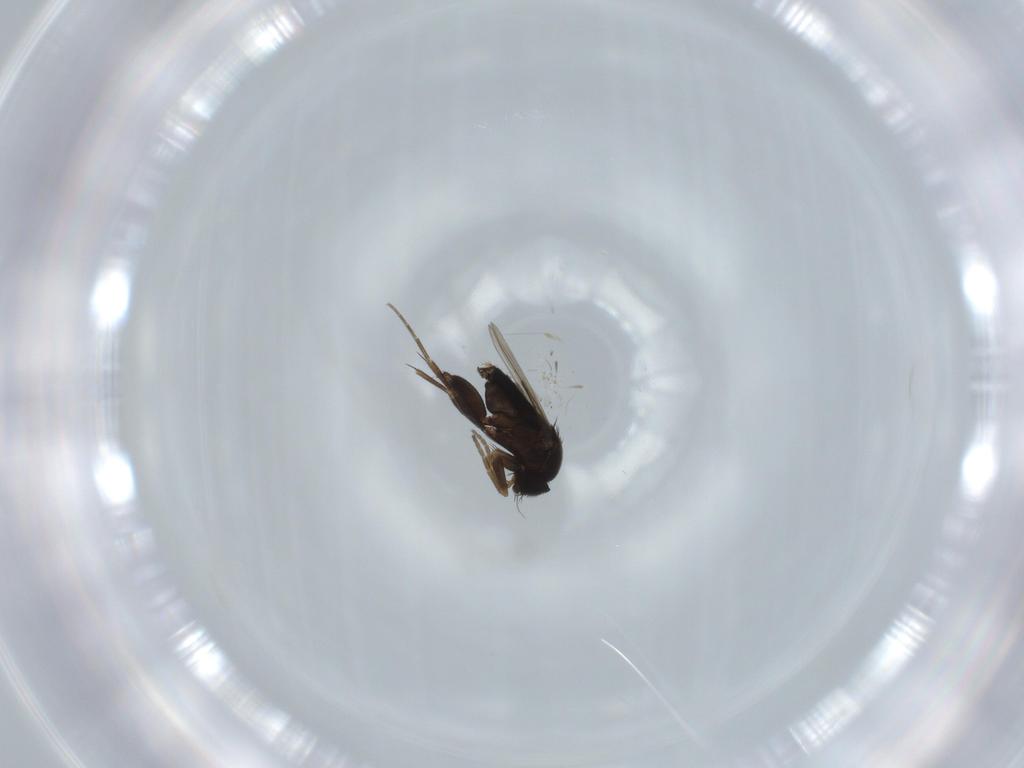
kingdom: Animalia
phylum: Arthropoda
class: Insecta
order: Diptera
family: Phoridae
